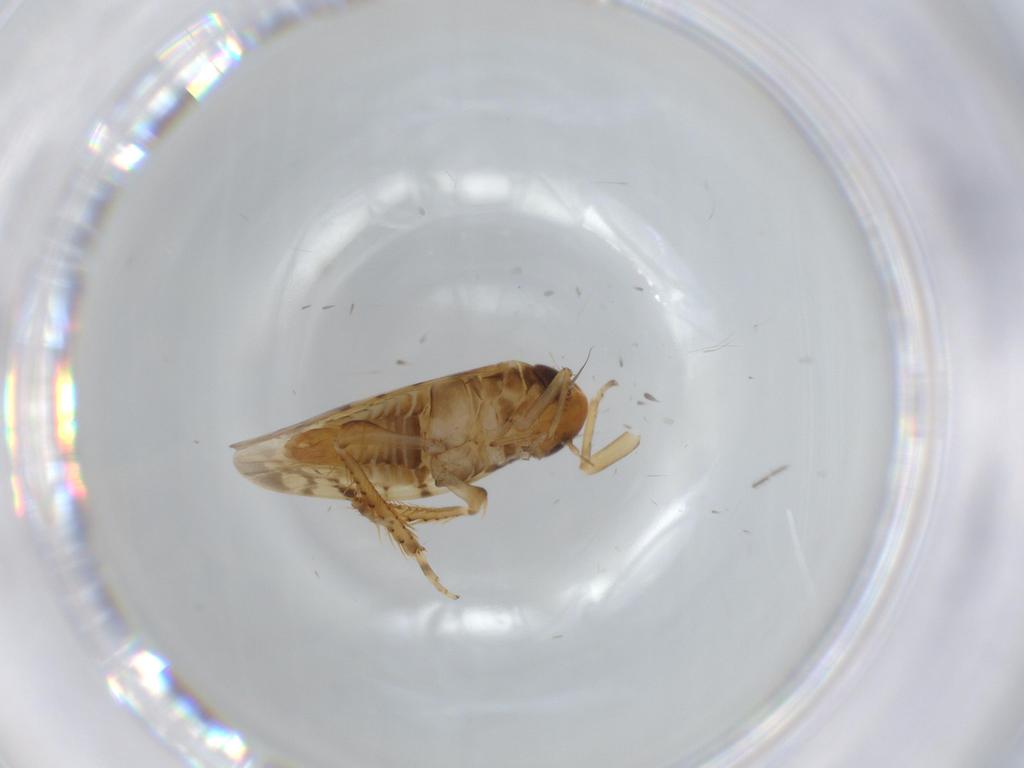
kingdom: Animalia
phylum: Arthropoda
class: Insecta
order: Hemiptera
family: Cicadellidae
